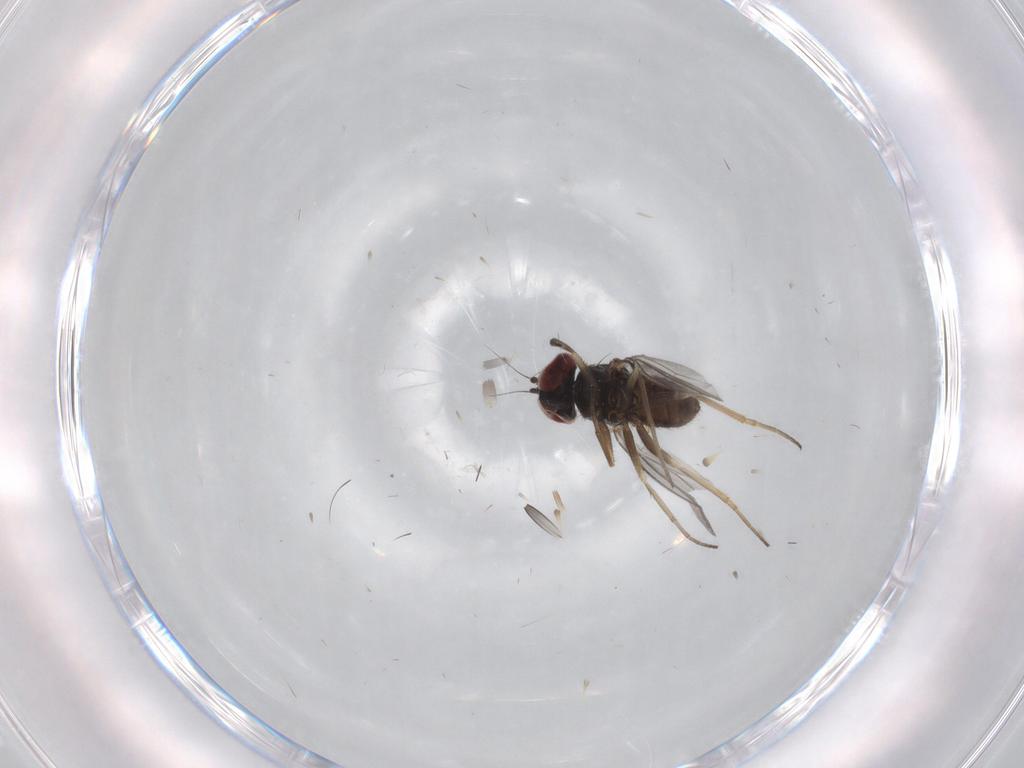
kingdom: Animalia
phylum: Arthropoda
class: Insecta
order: Diptera
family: Dolichopodidae
